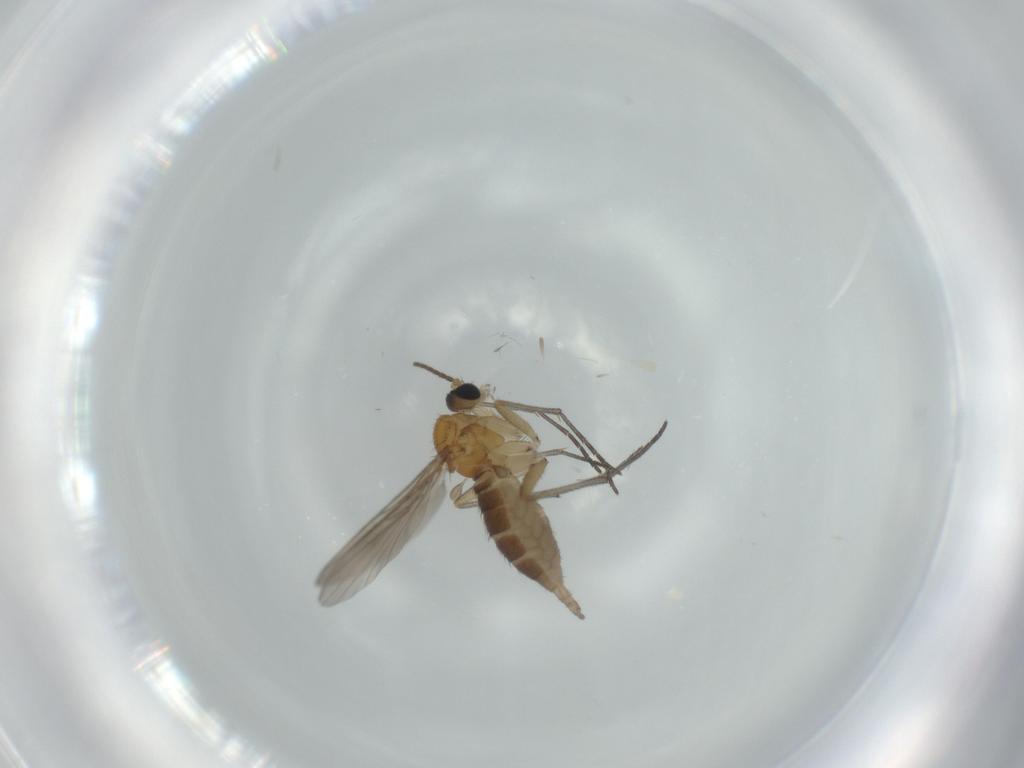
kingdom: Animalia
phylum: Arthropoda
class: Insecta
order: Diptera
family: Sciaridae
